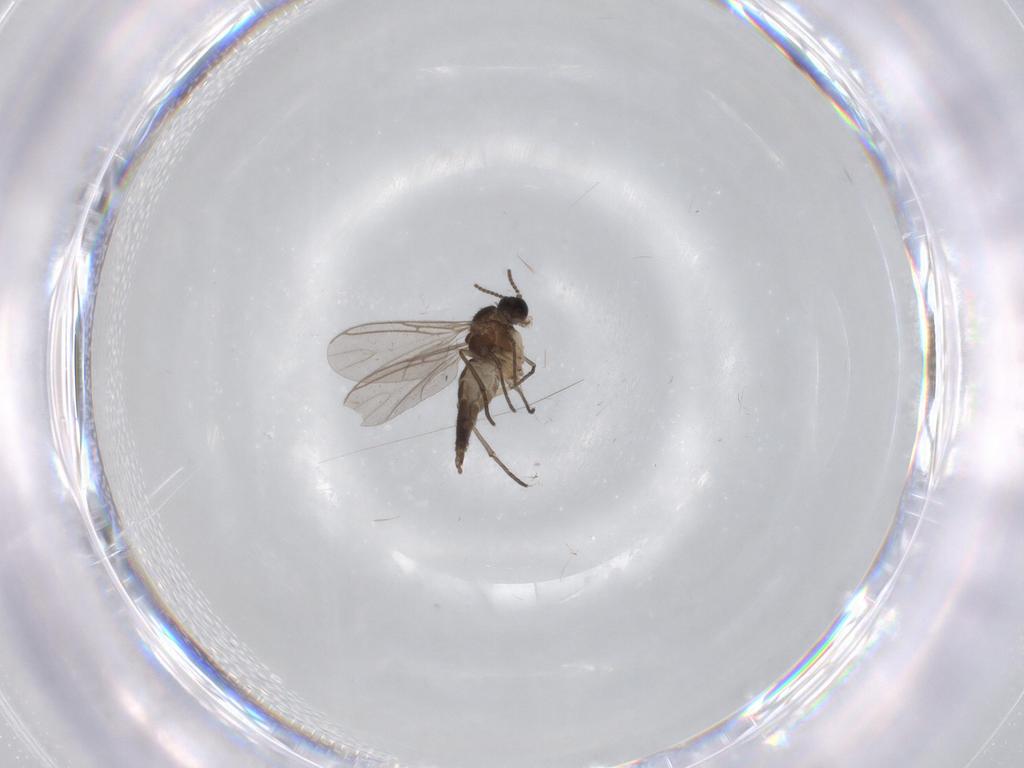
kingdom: Animalia
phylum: Arthropoda
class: Insecta
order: Diptera
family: Sciaridae
